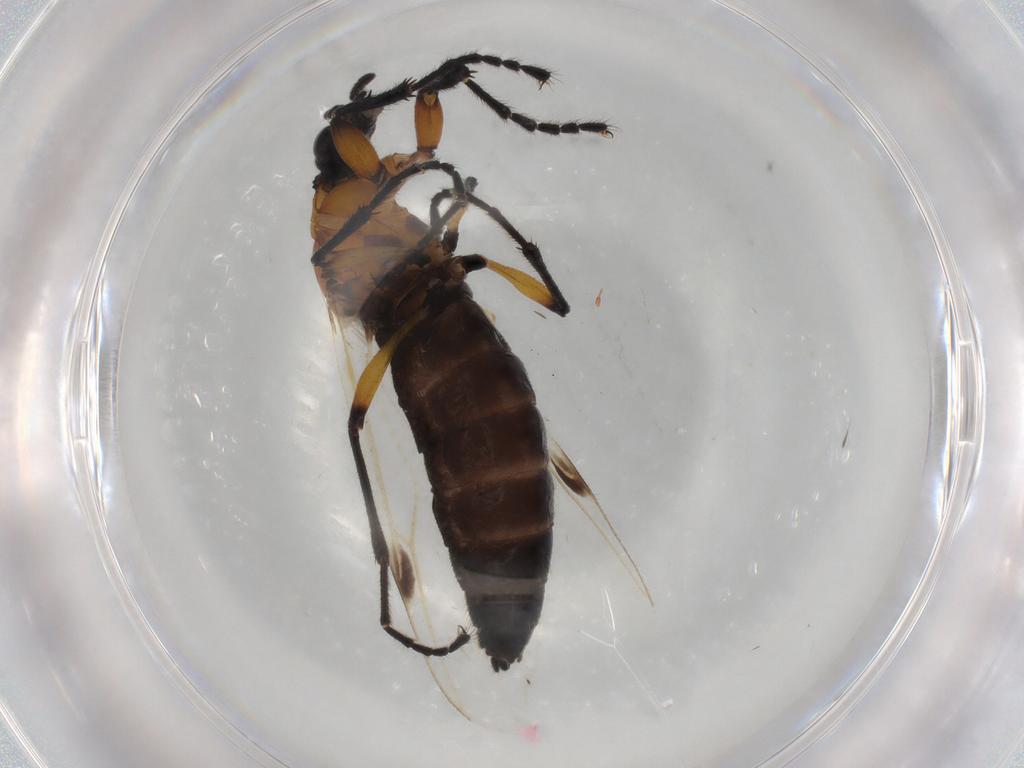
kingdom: Animalia
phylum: Arthropoda
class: Insecta
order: Diptera
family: Bibionidae
